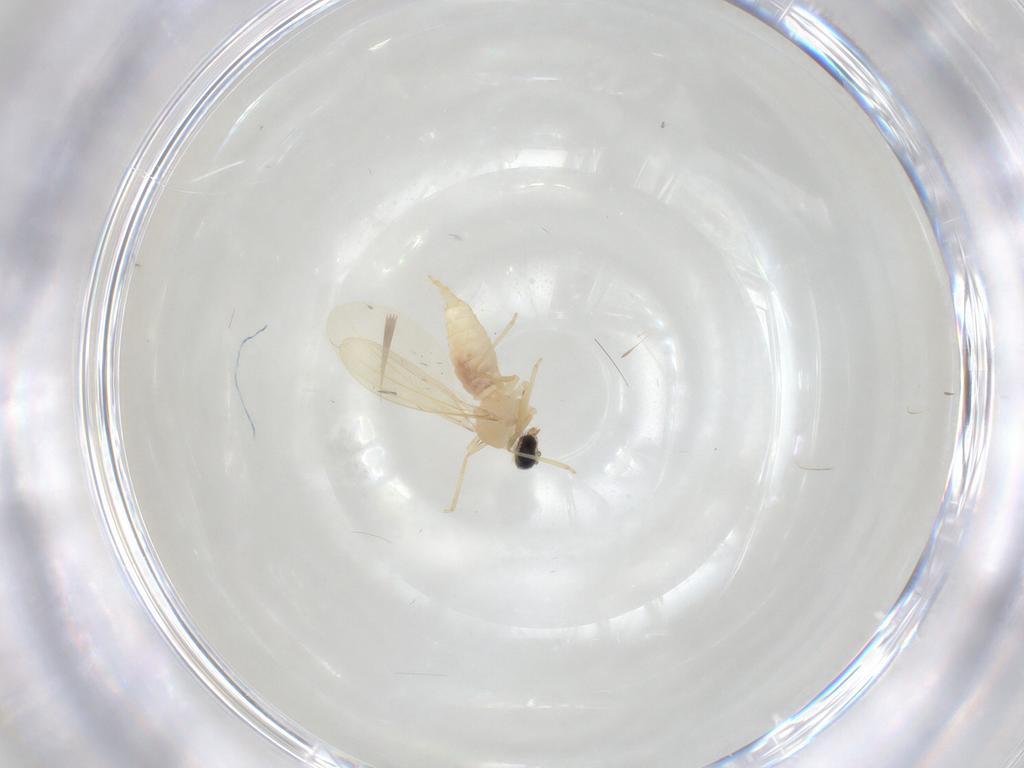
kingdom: Animalia
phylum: Arthropoda
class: Insecta
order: Diptera
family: Cecidomyiidae
